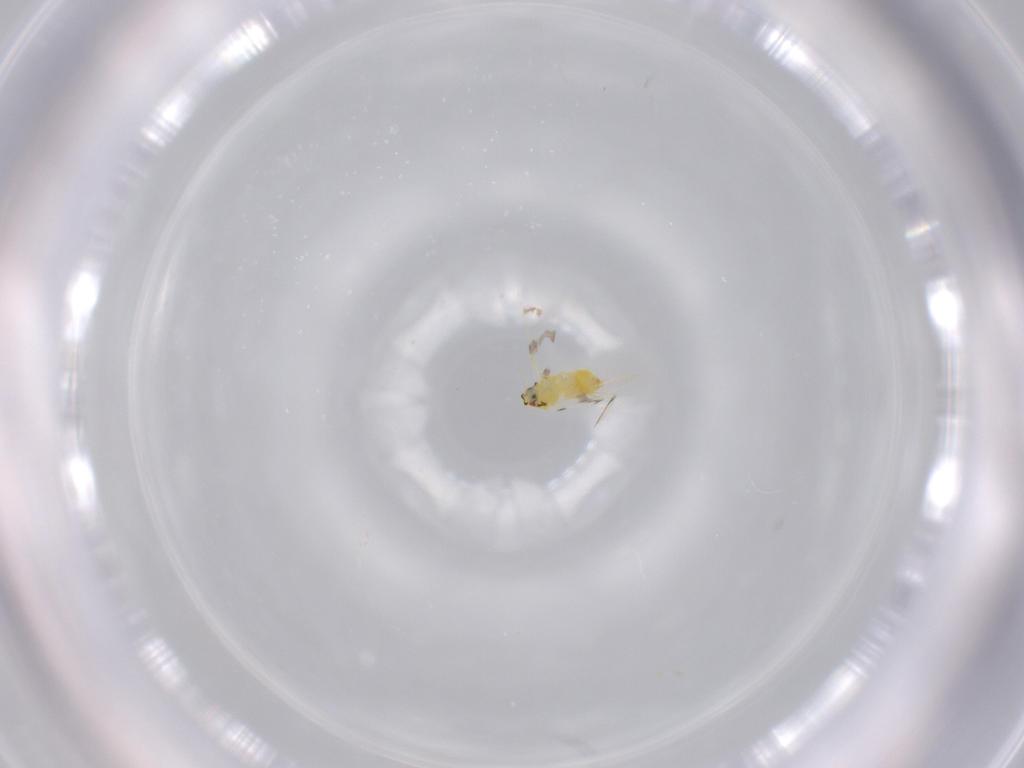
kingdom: Animalia
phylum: Arthropoda
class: Insecta
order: Hemiptera
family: Aleyrodidae
